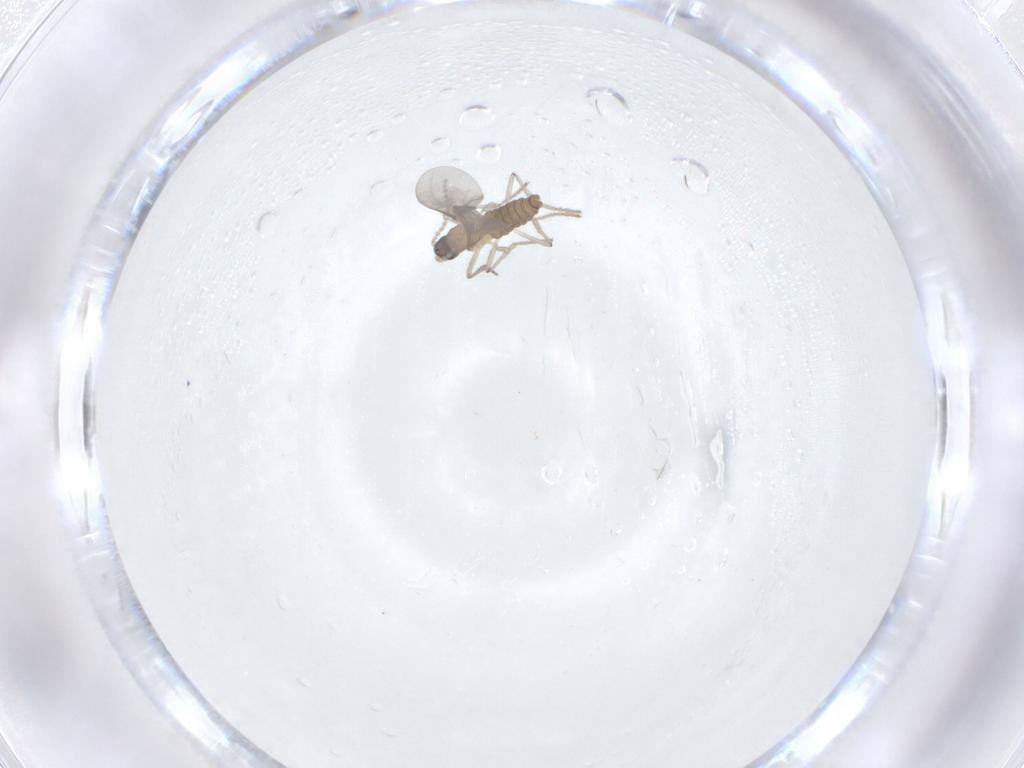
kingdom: Animalia
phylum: Arthropoda
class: Insecta
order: Diptera
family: Cecidomyiidae
